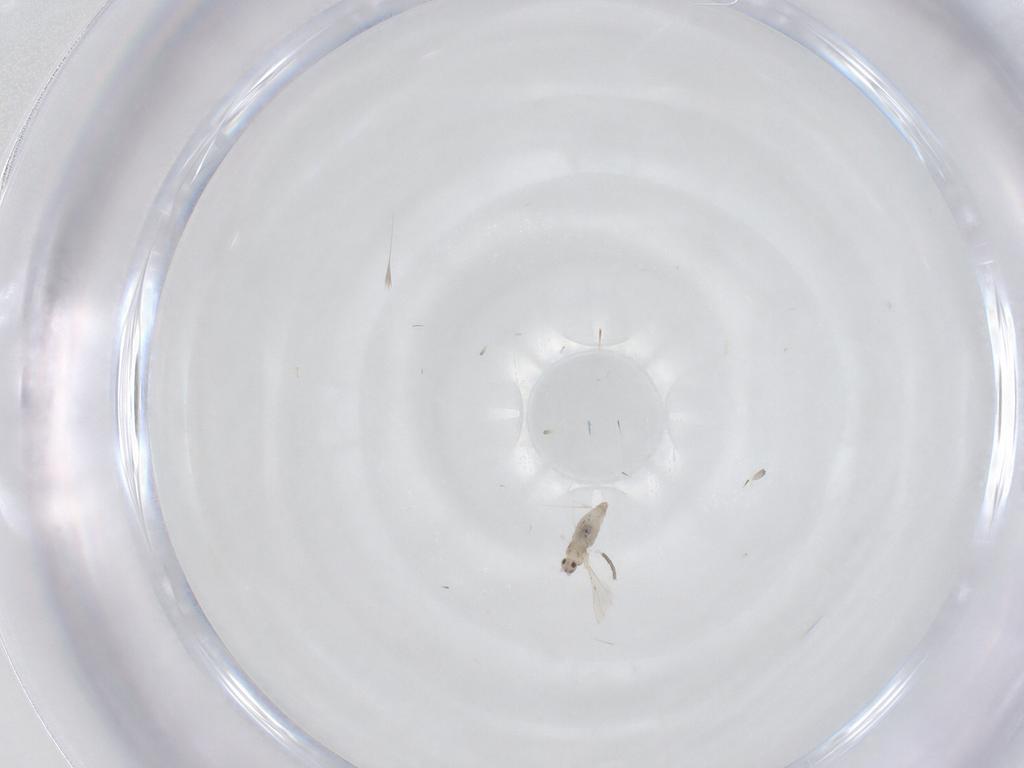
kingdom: Animalia
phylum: Arthropoda
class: Insecta
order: Diptera
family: Cecidomyiidae
